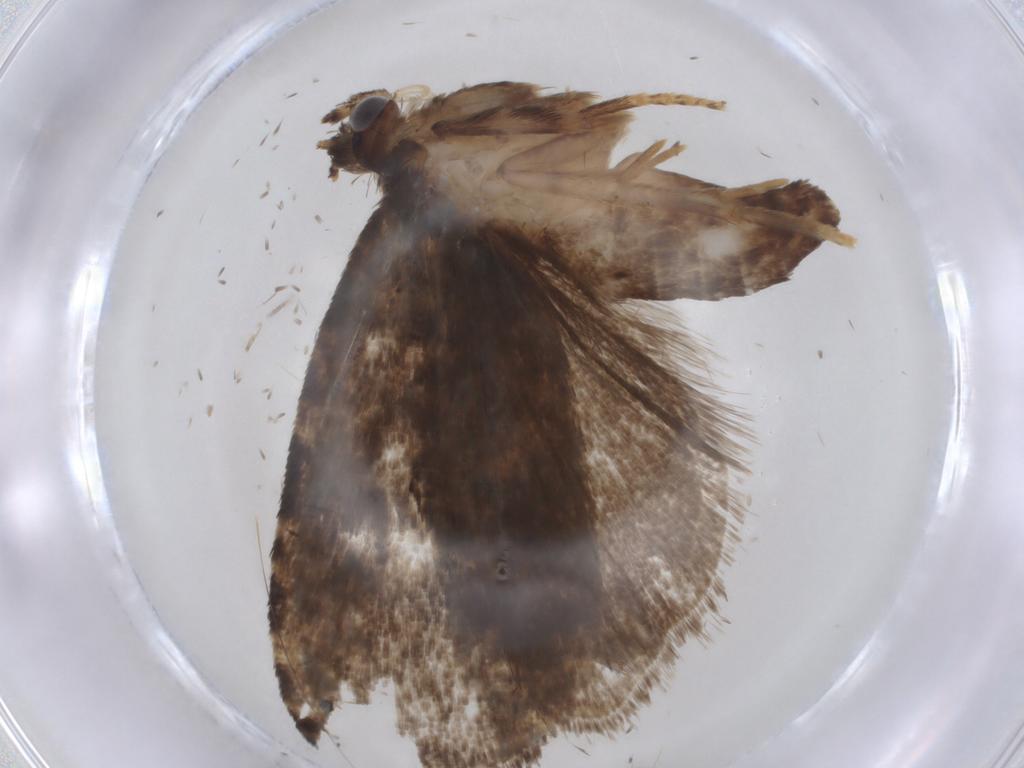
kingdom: Animalia
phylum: Arthropoda
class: Insecta
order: Lepidoptera
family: Tortricidae
